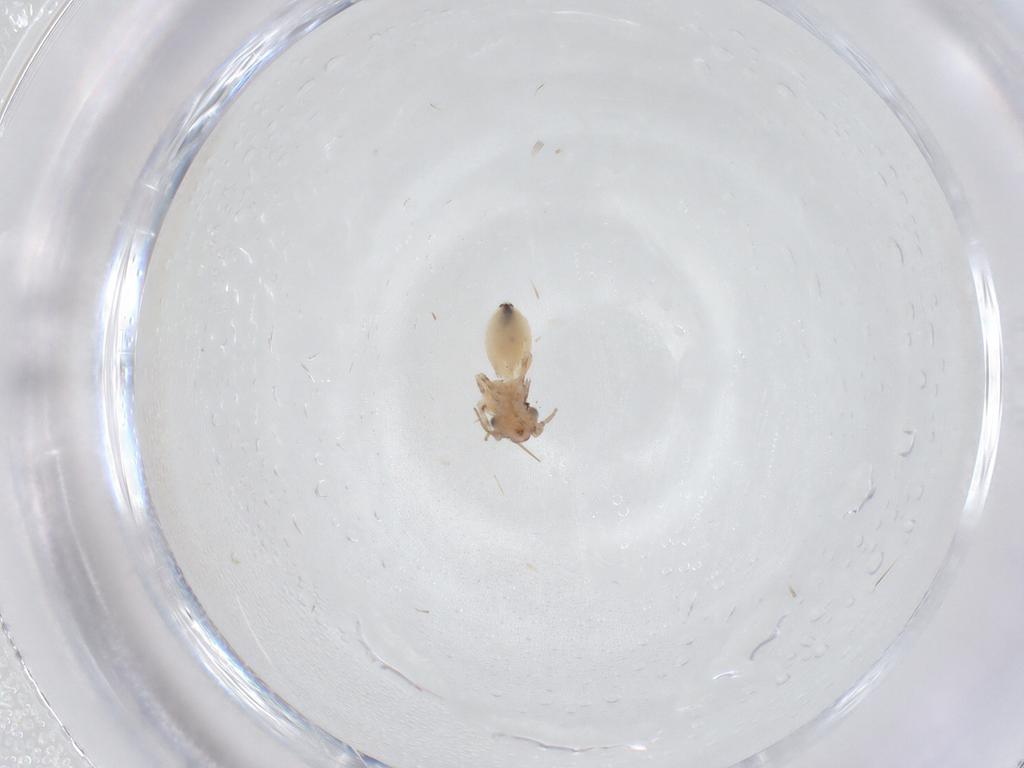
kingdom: Animalia
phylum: Arthropoda
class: Insecta
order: Psocodea
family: Lepidopsocidae
